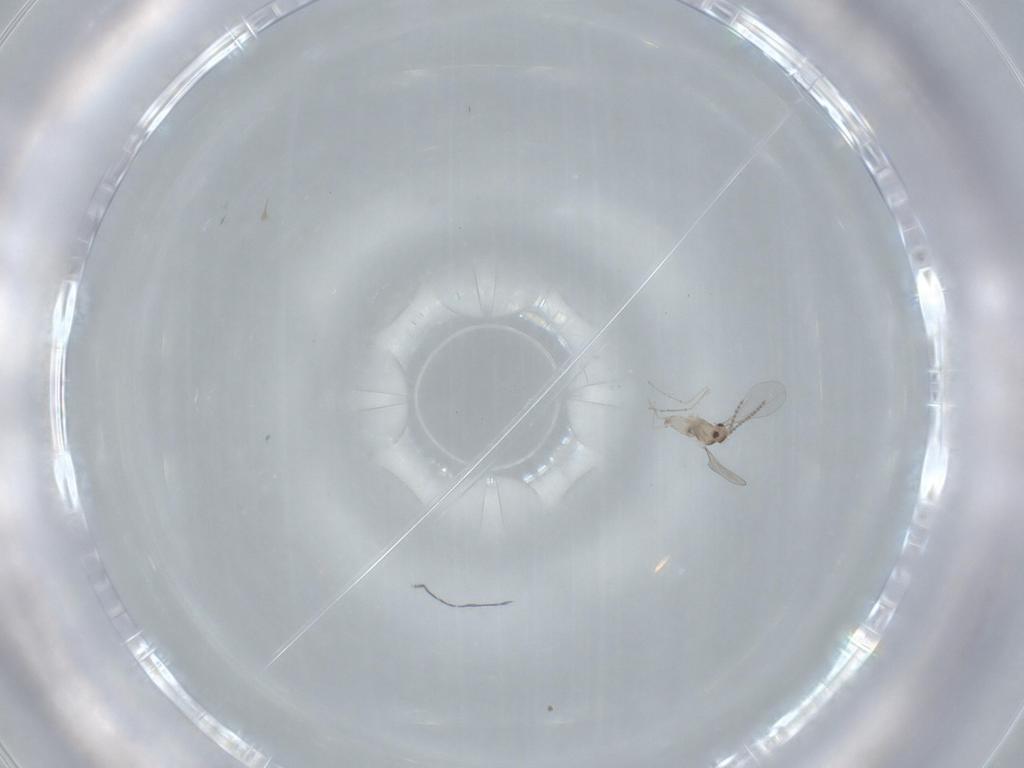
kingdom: Animalia
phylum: Arthropoda
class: Insecta
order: Diptera
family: Cecidomyiidae
